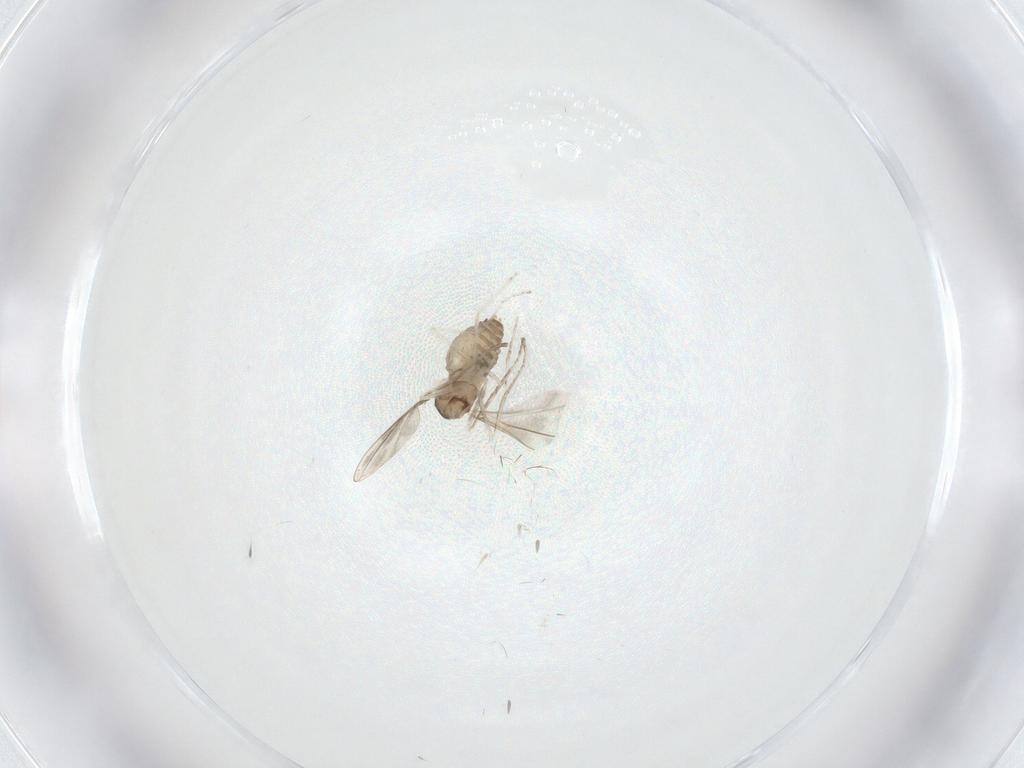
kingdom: Animalia
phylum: Arthropoda
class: Insecta
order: Diptera
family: Cecidomyiidae
